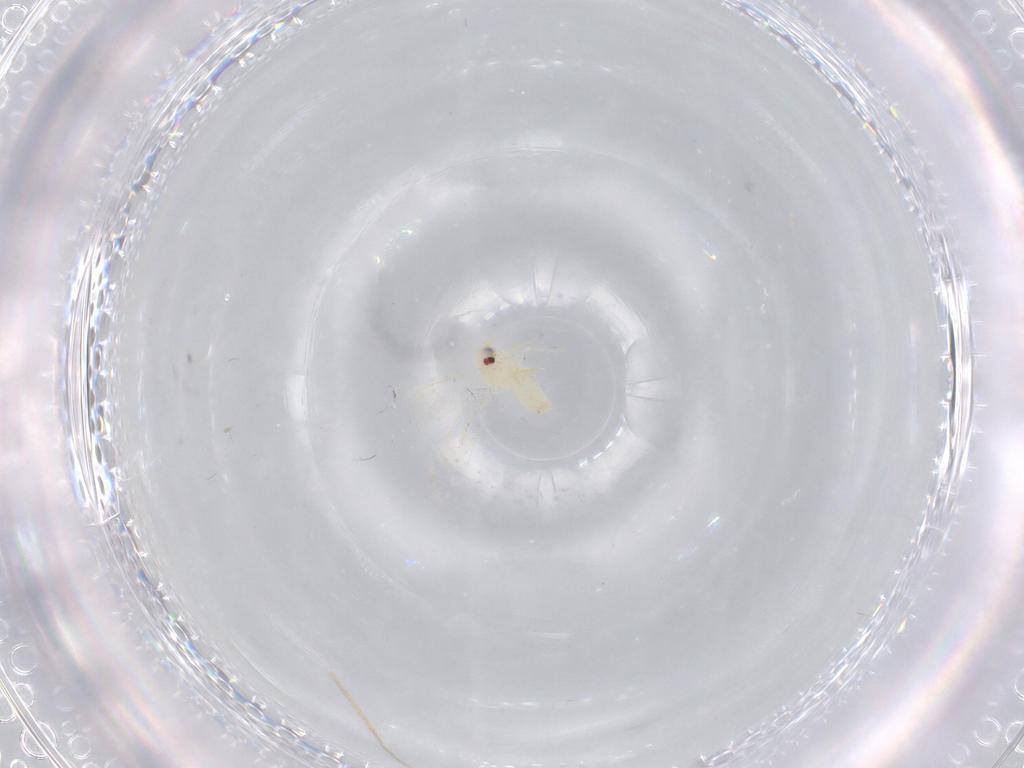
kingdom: Animalia
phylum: Arthropoda
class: Insecta
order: Hemiptera
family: Aleyrodidae
